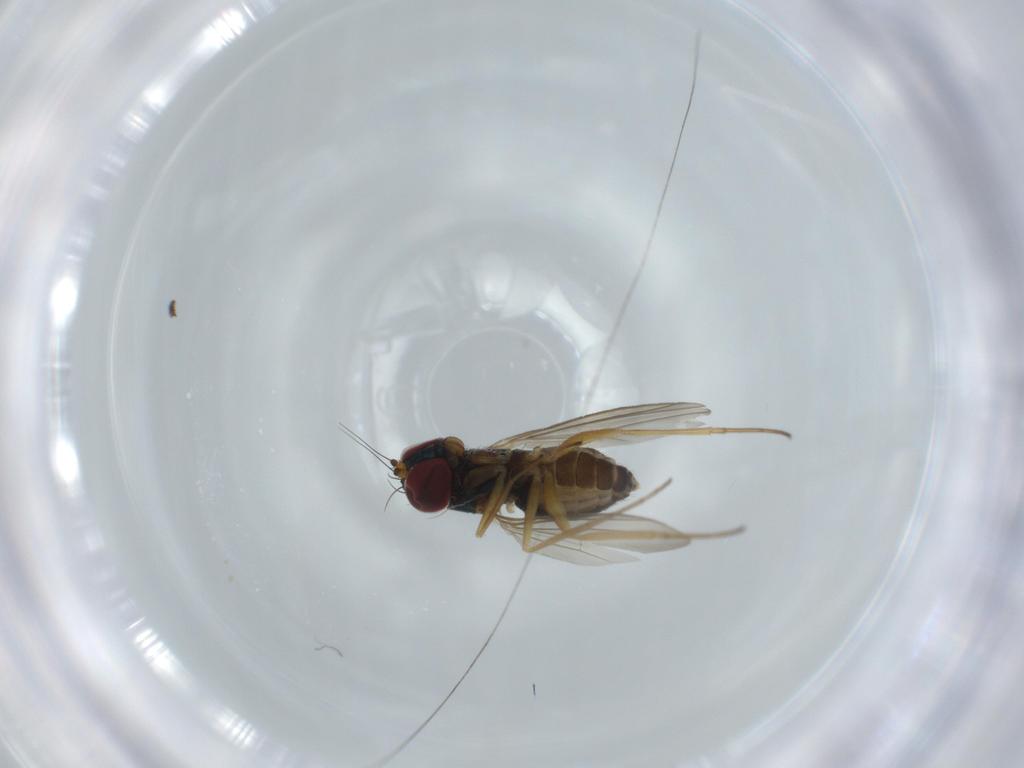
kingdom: Animalia
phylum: Arthropoda
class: Insecta
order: Diptera
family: Dolichopodidae
